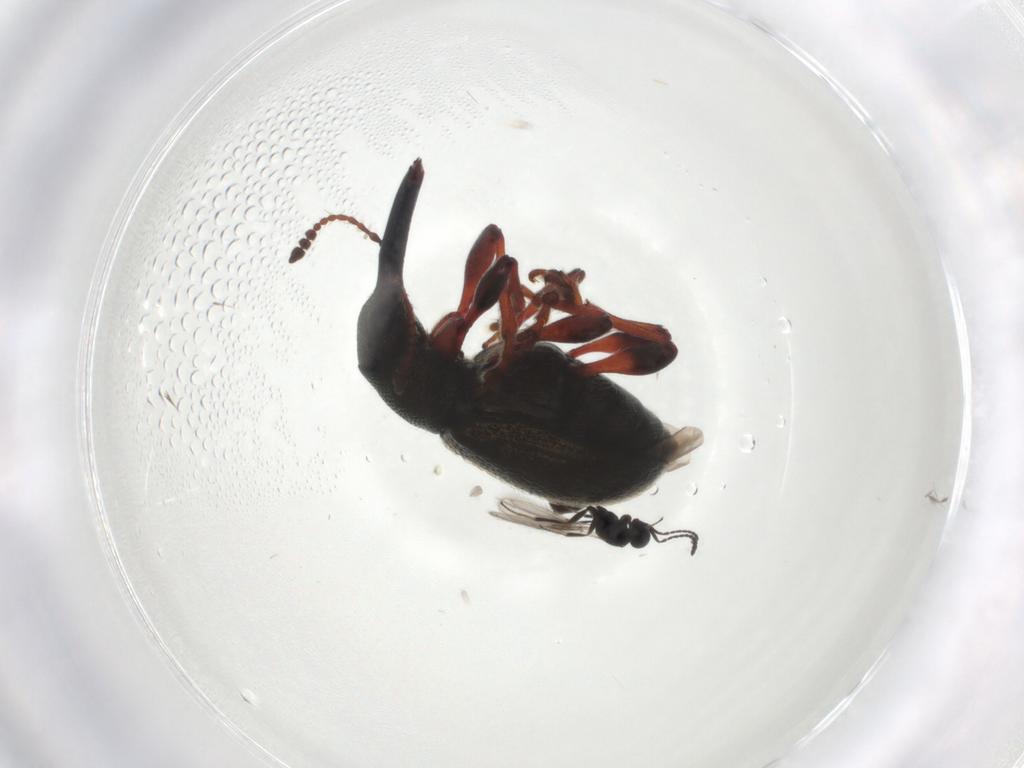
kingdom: Animalia
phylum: Arthropoda
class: Insecta
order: Coleoptera
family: Attelabidae
